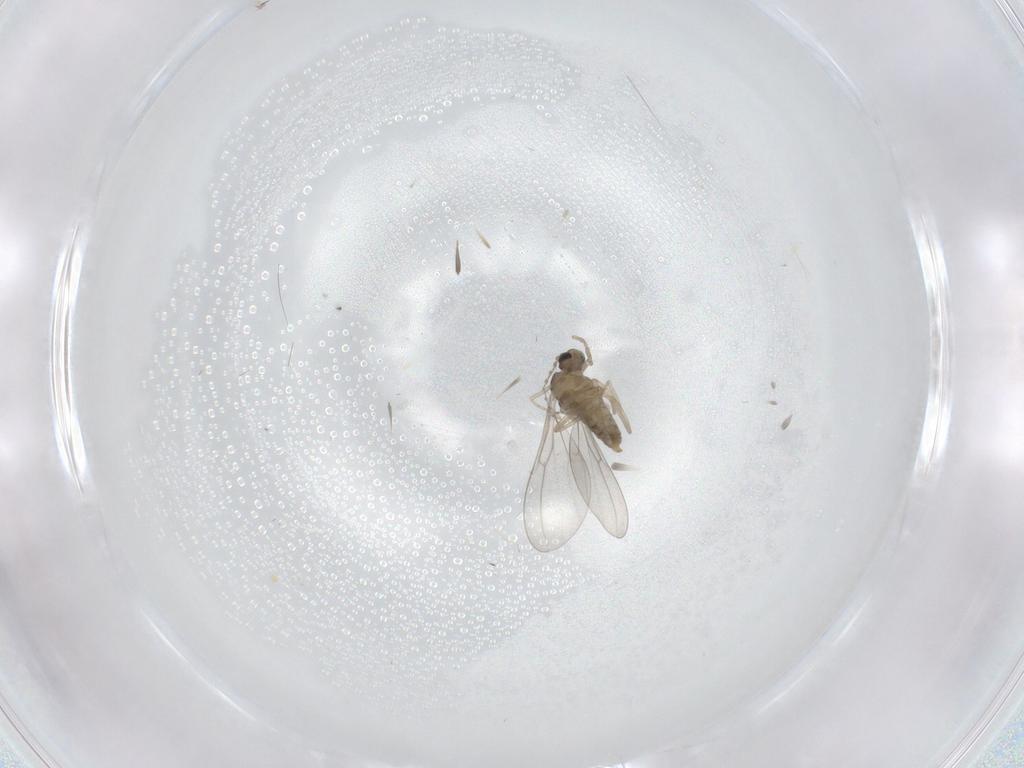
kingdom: Animalia
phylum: Arthropoda
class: Insecta
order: Diptera
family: Cecidomyiidae
